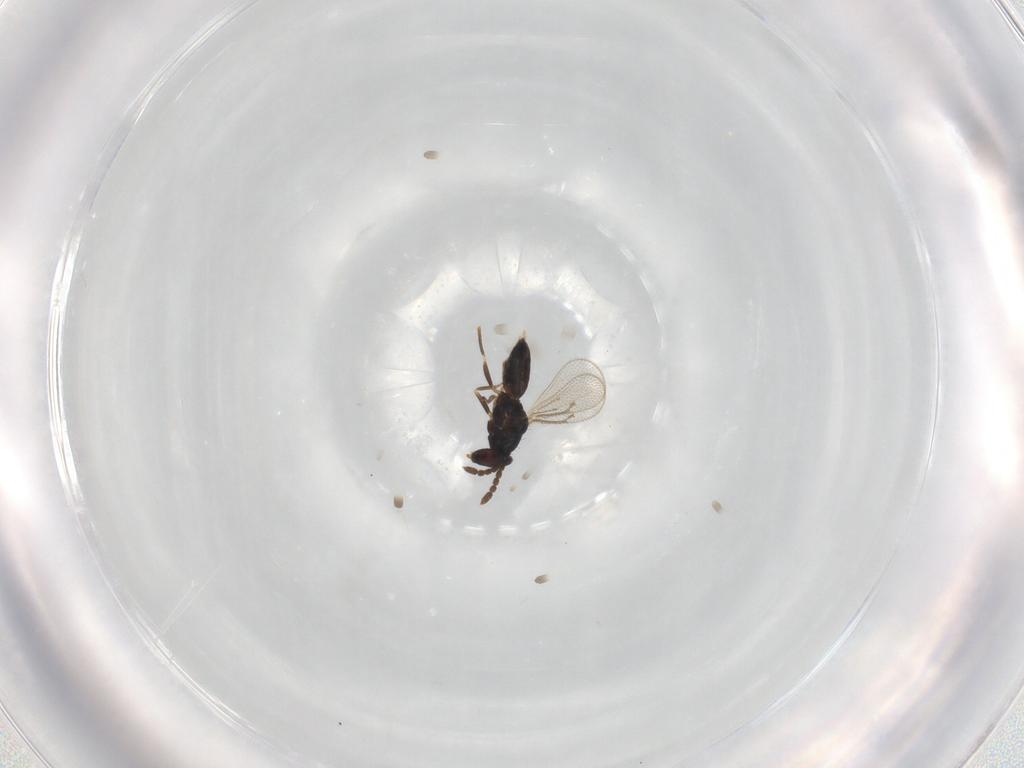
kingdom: Animalia
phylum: Arthropoda
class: Insecta
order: Hymenoptera
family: Eulophidae
